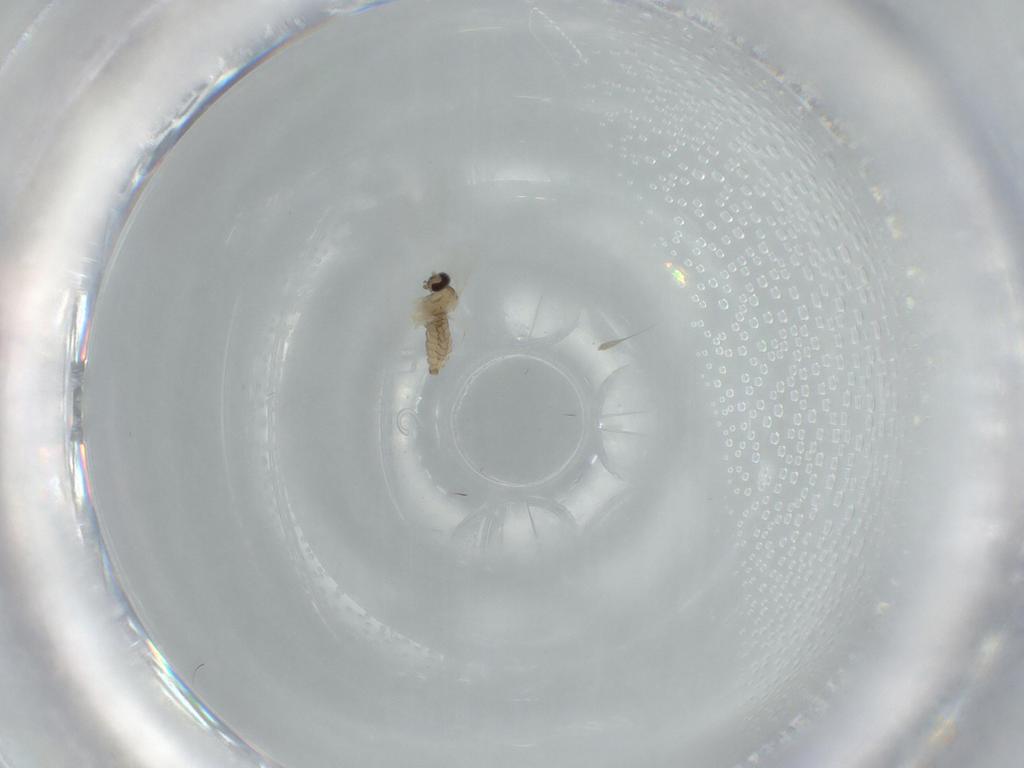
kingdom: Animalia
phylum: Arthropoda
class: Insecta
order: Diptera
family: Cecidomyiidae
